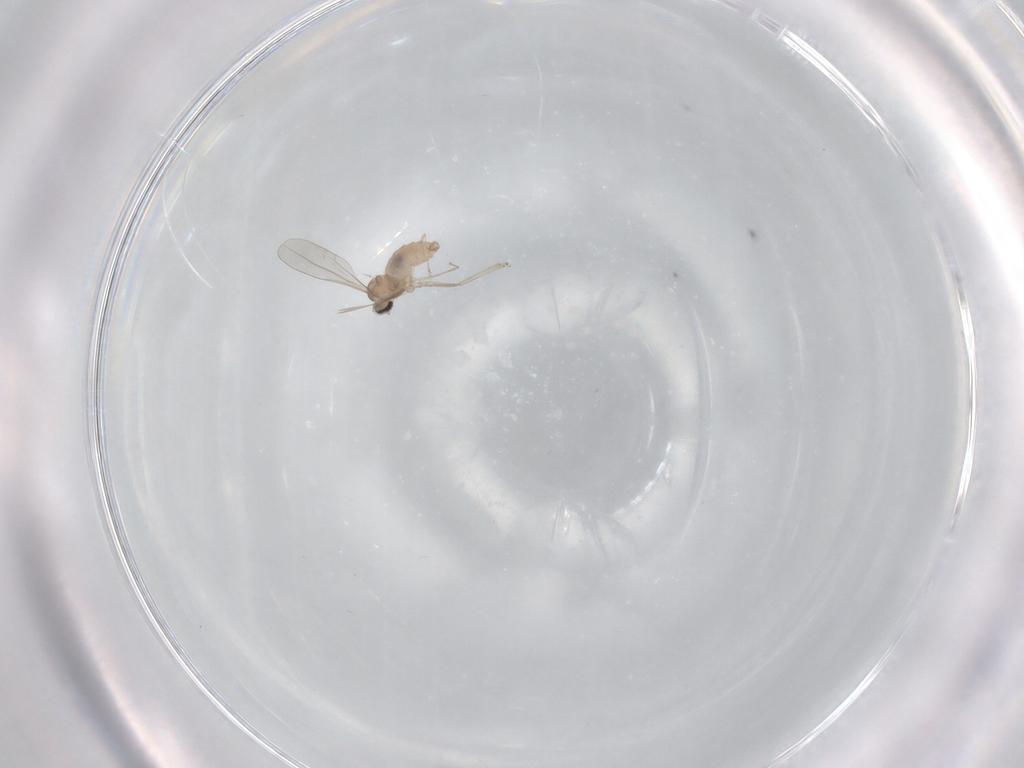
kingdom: Animalia
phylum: Arthropoda
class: Insecta
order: Diptera
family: Cecidomyiidae
